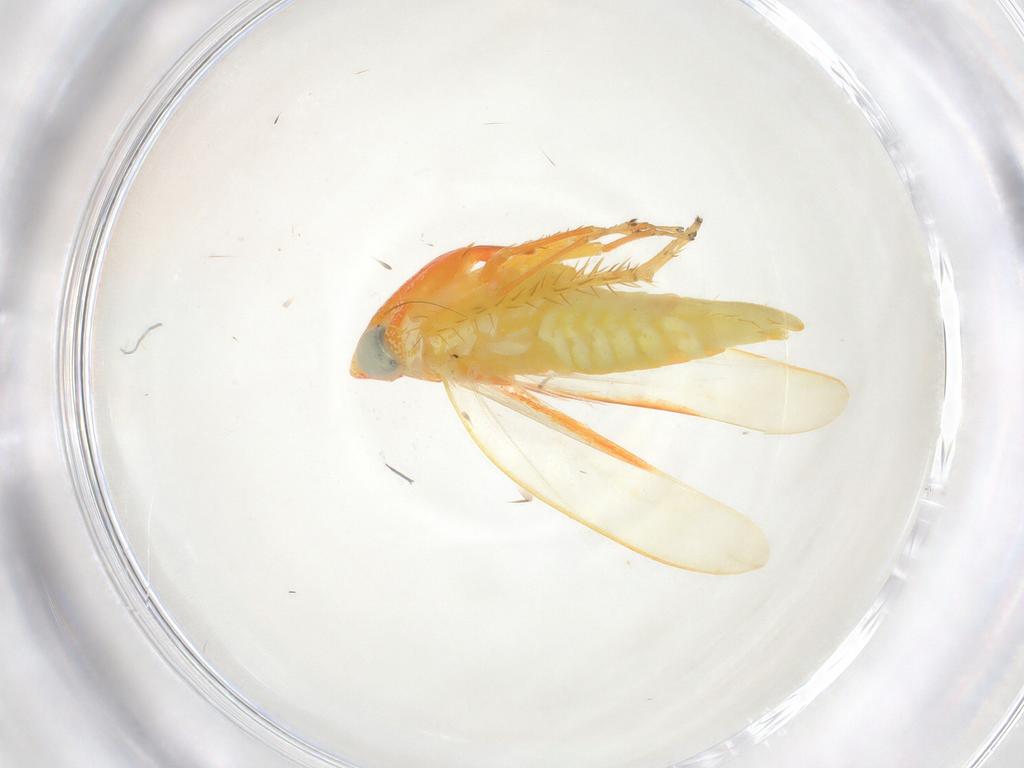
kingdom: Animalia
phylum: Arthropoda
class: Insecta
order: Hemiptera
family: Cicadellidae
